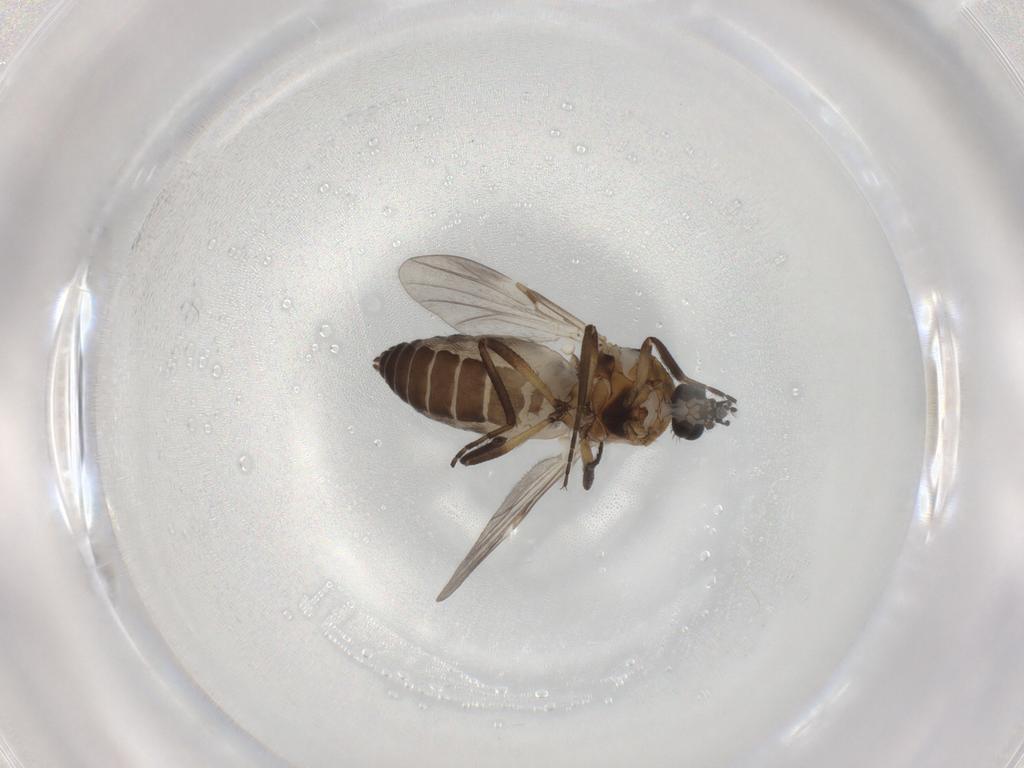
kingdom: Animalia
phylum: Arthropoda
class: Insecta
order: Diptera
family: Ceratopogonidae
